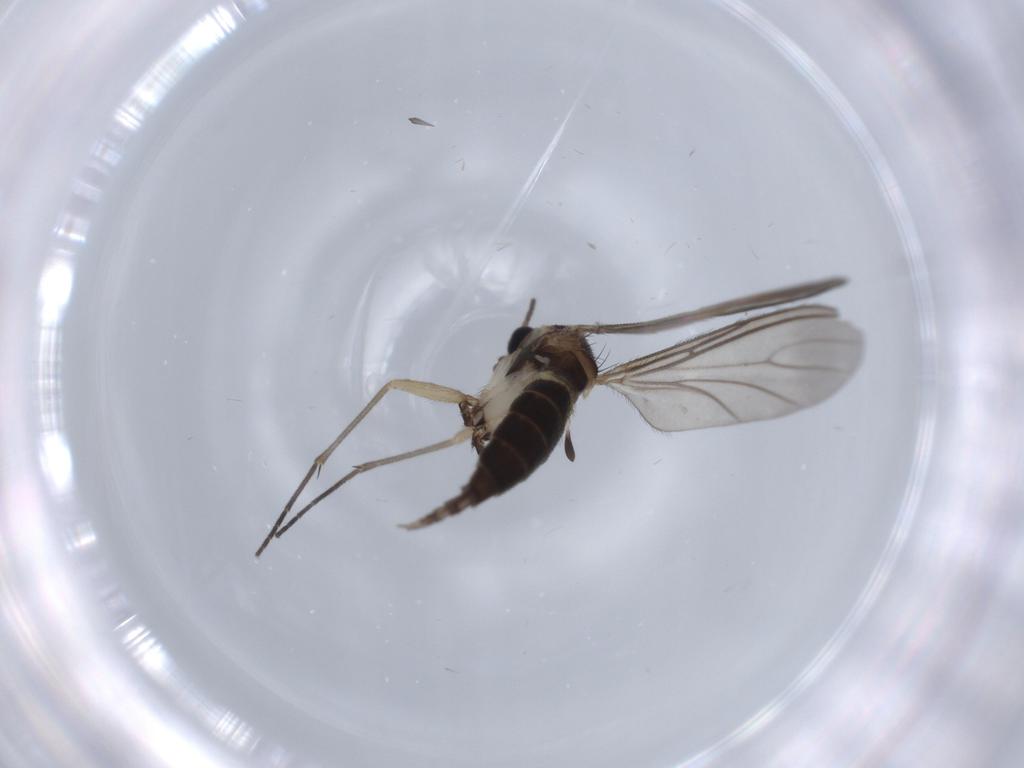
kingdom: Animalia
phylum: Arthropoda
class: Insecta
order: Diptera
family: Sciaridae
